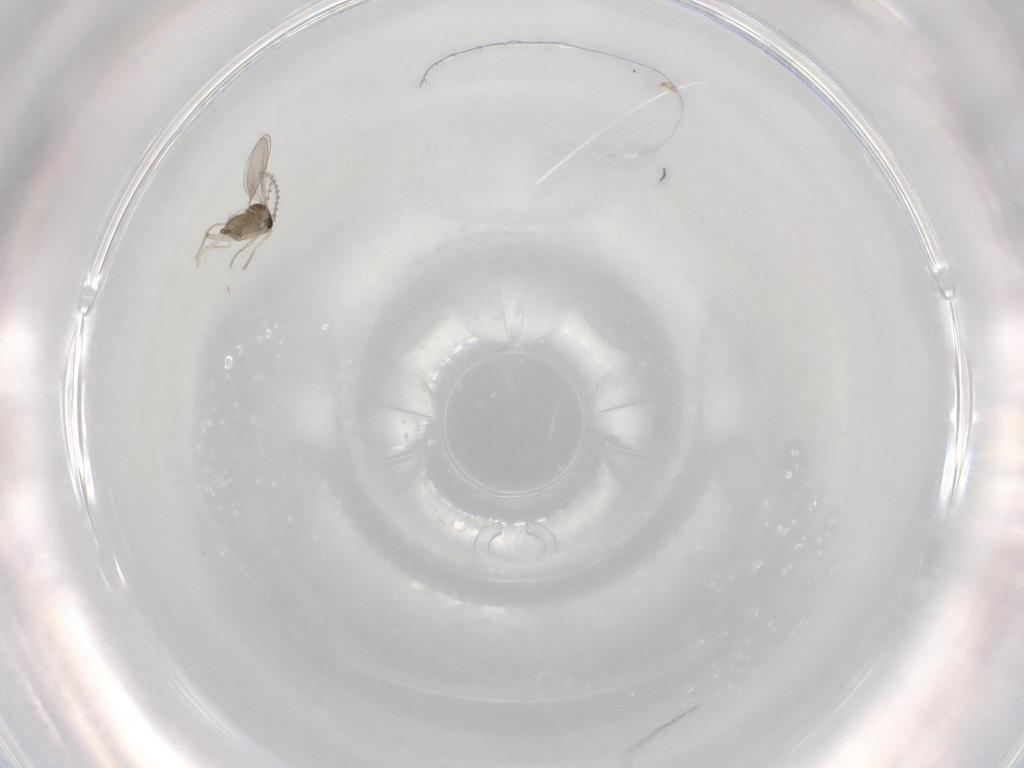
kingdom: Animalia
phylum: Arthropoda
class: Insecta
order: Diptera
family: Cecidomyiidae
